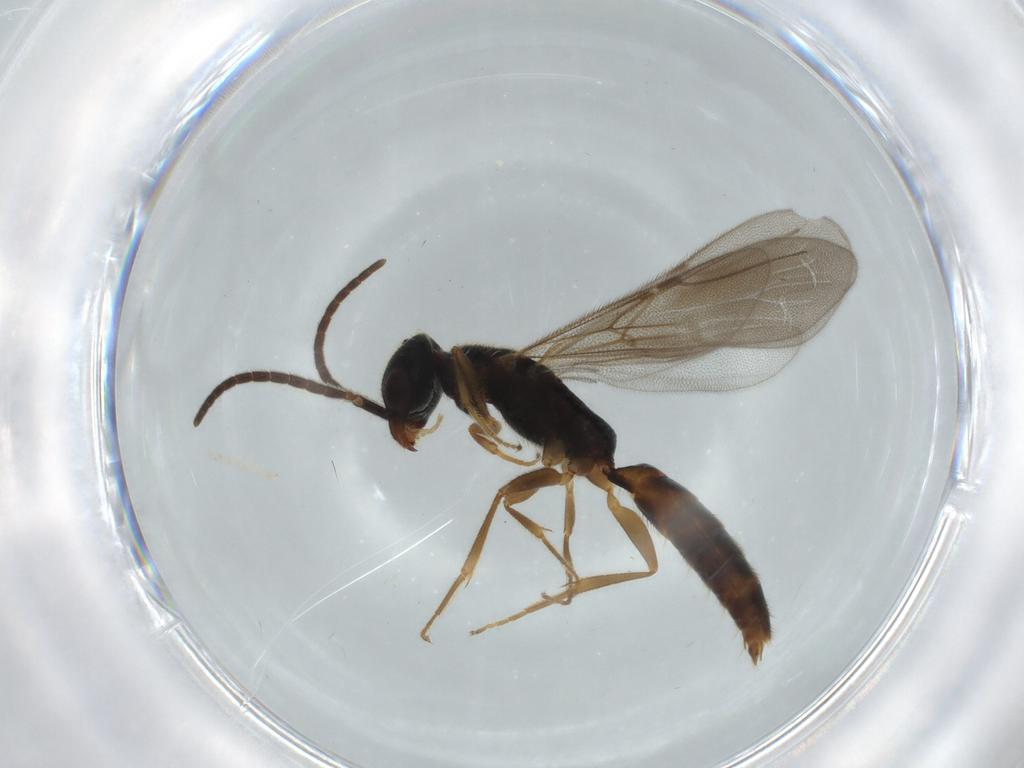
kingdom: Animalia
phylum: Arthropoda
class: Insecta
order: Hymenoptera
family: Bethylidae
